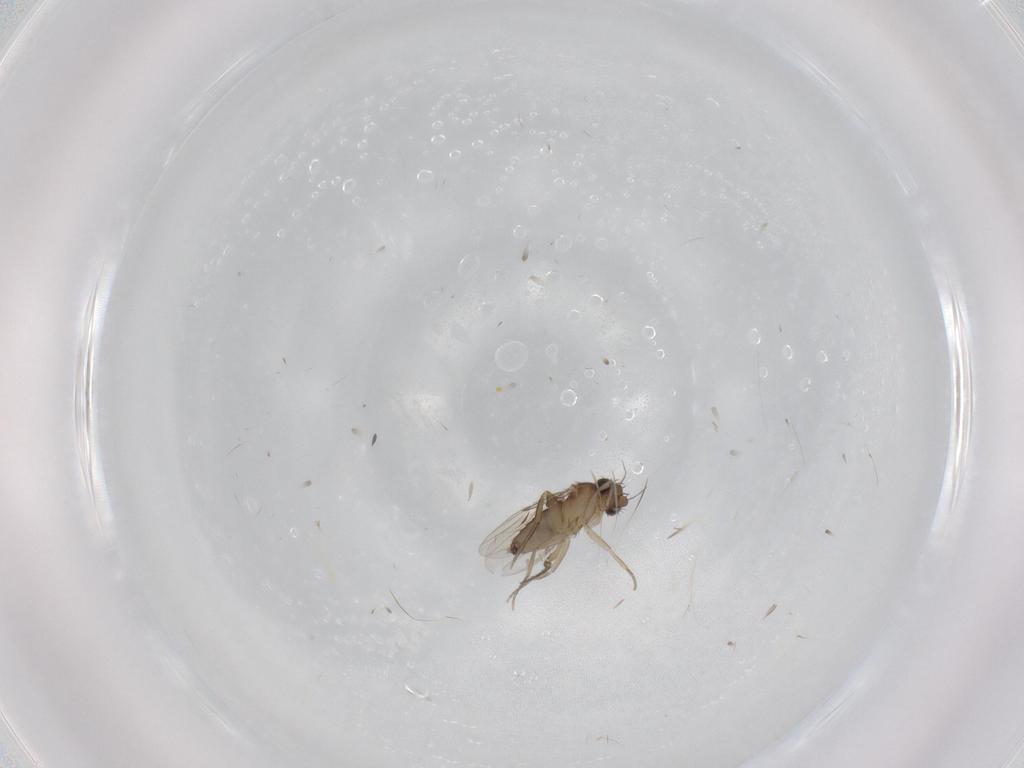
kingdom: Animalia
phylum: Arthropoda
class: Insecta
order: Diptera
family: Phoridae
